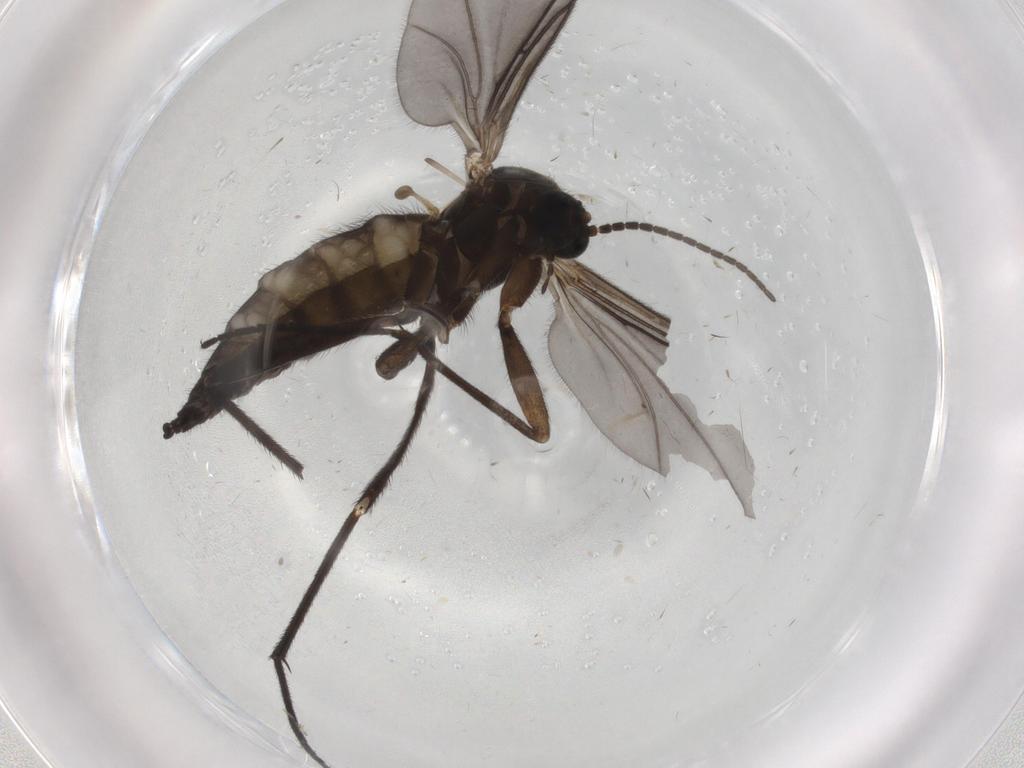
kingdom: Animalia
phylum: Arthropoda
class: Insecta
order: Diptera
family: Sciaridae
